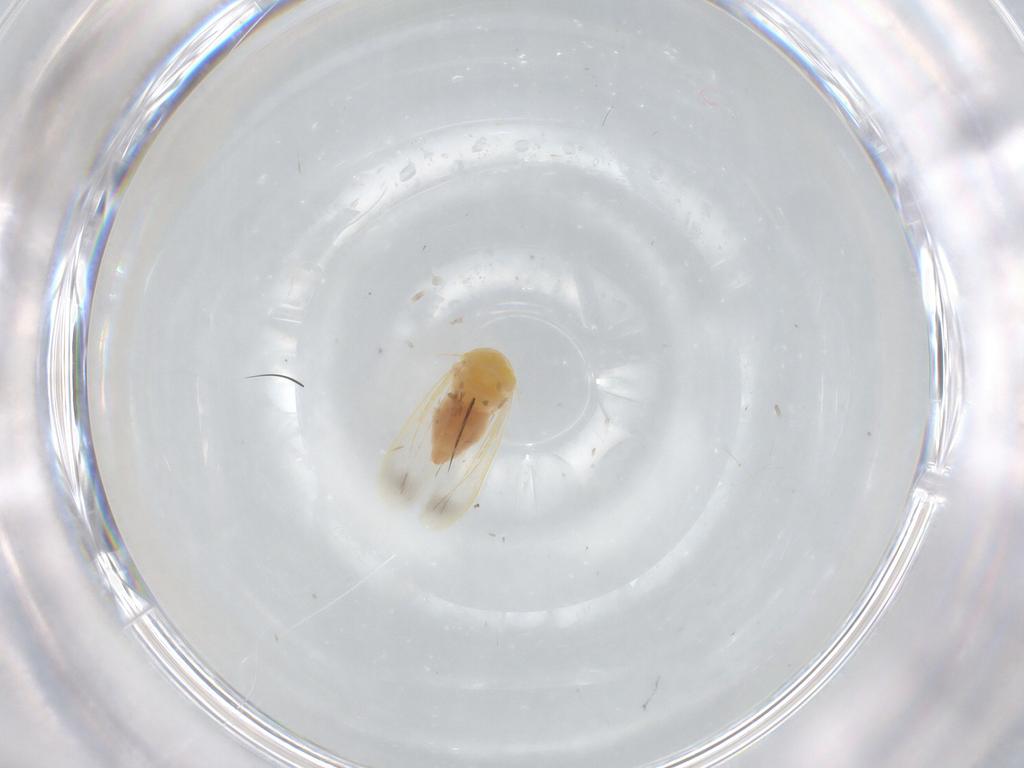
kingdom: Animalia
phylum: Arthropoda
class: Insecta
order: Hemiptera
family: Aleyrodidae
